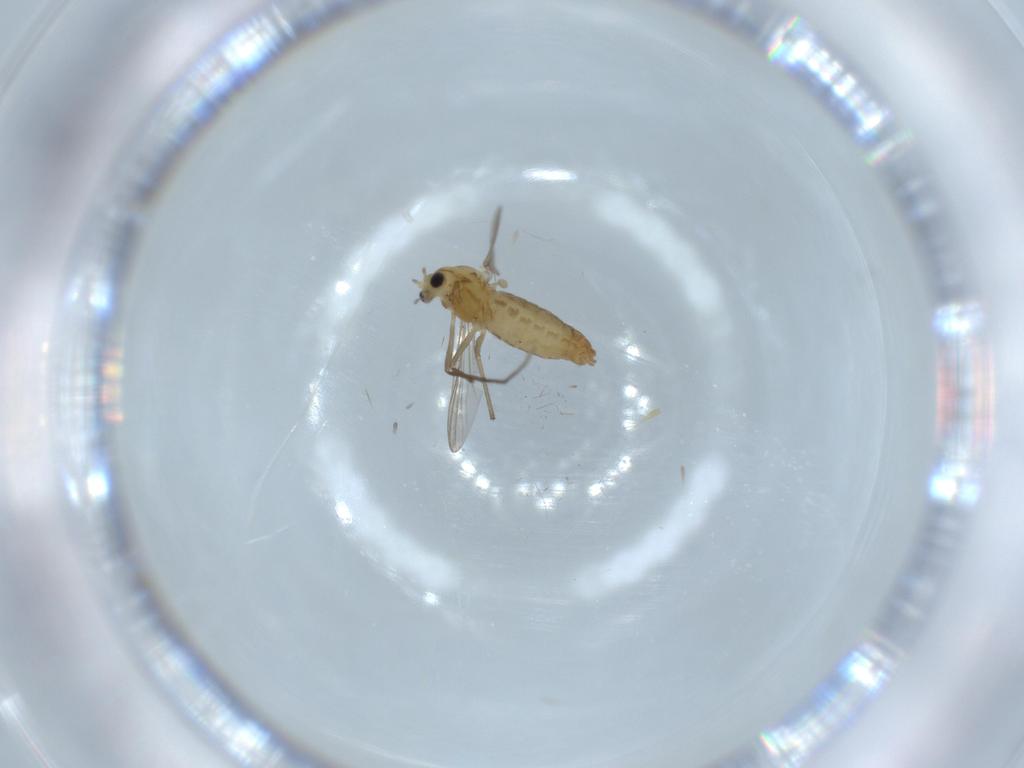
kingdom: Animalia
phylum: Arthropoda
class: Insecta
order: Diptera
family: Chironomidae
